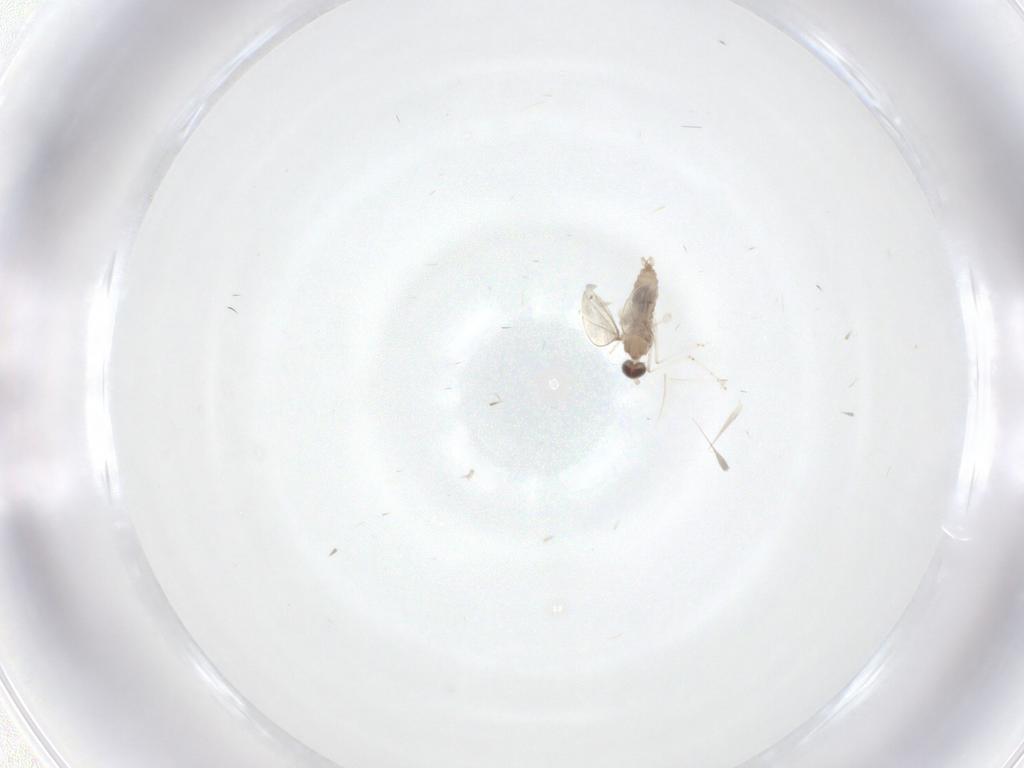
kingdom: Animalia
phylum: Arthropoda
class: Insecta
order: Diptera
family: Cecidomyiidae
